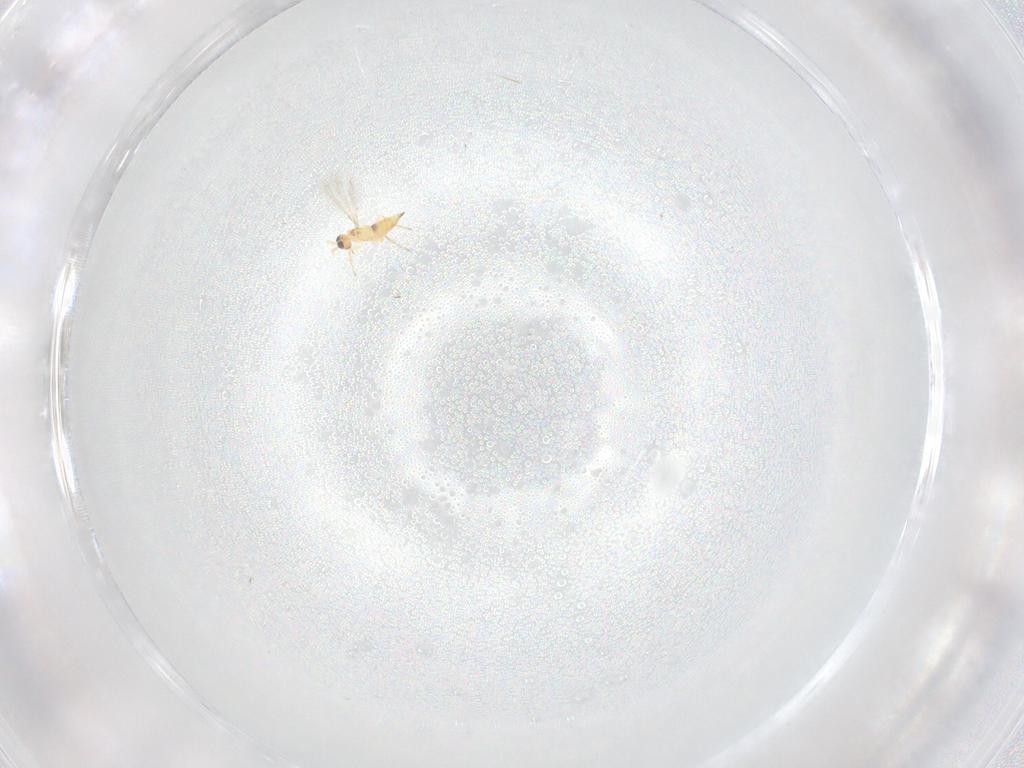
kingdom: Animalia
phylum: Arthropoda
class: Insecta
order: Hymenoptera
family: Mymaridae
